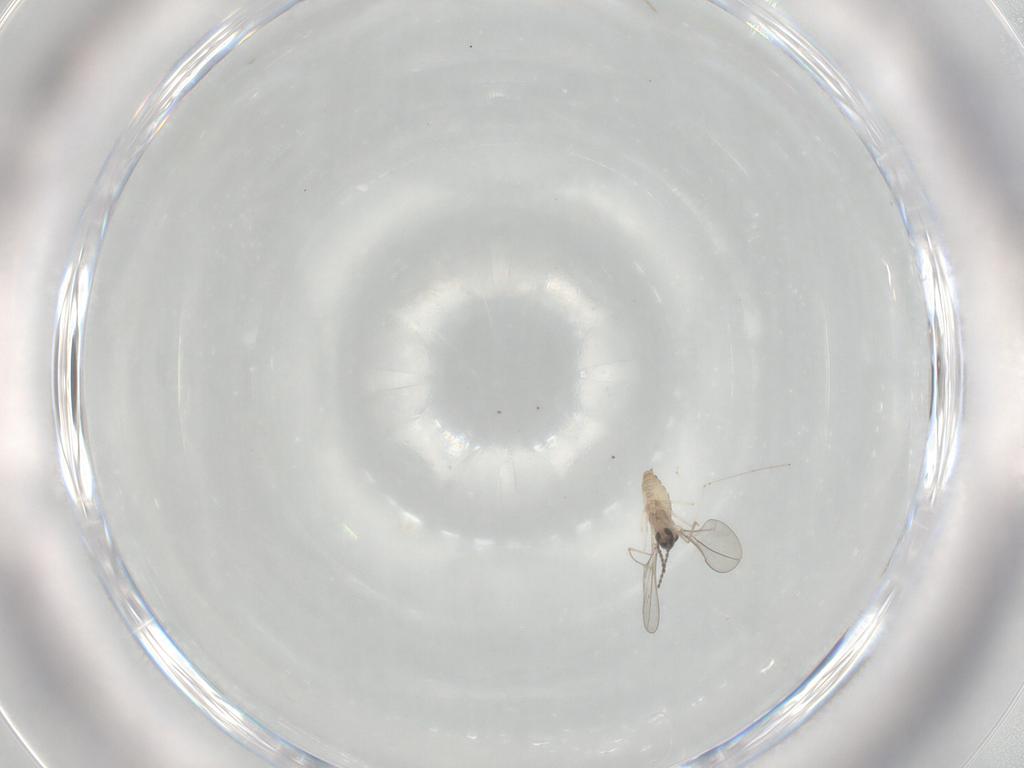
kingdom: Animalia
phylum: Arthropoda
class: Insecta
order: Diptera
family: Cecidomyiidae
